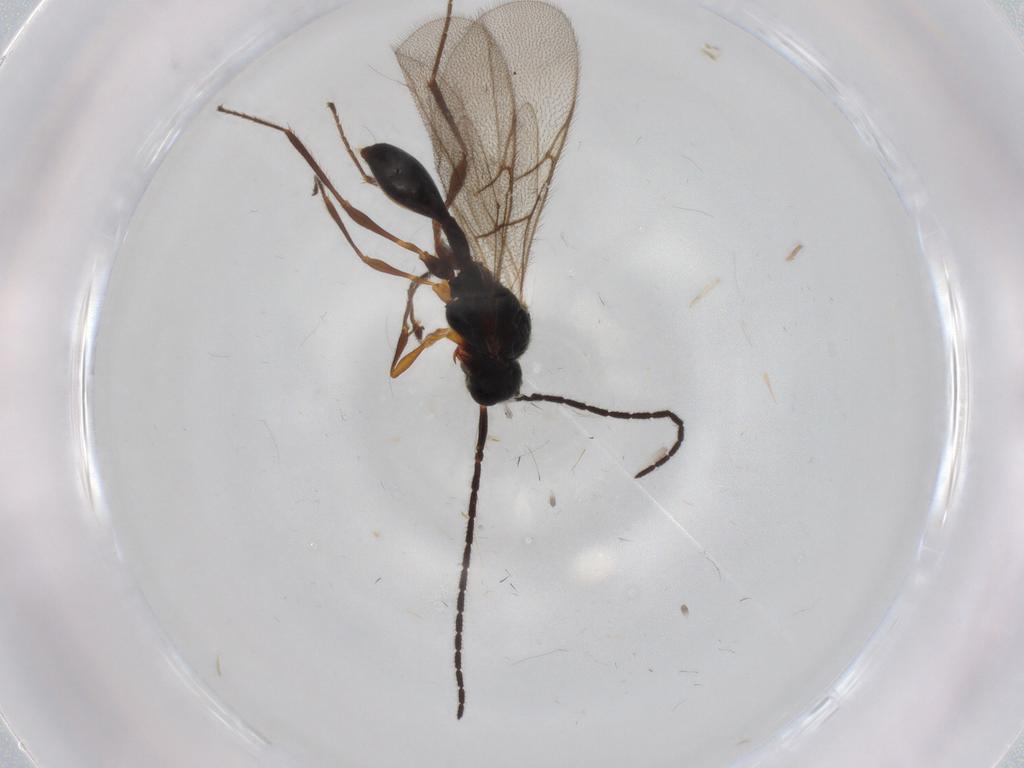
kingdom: Animalia
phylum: Arthropoda
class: Insecta
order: Hymenoptera
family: Diapriidae
